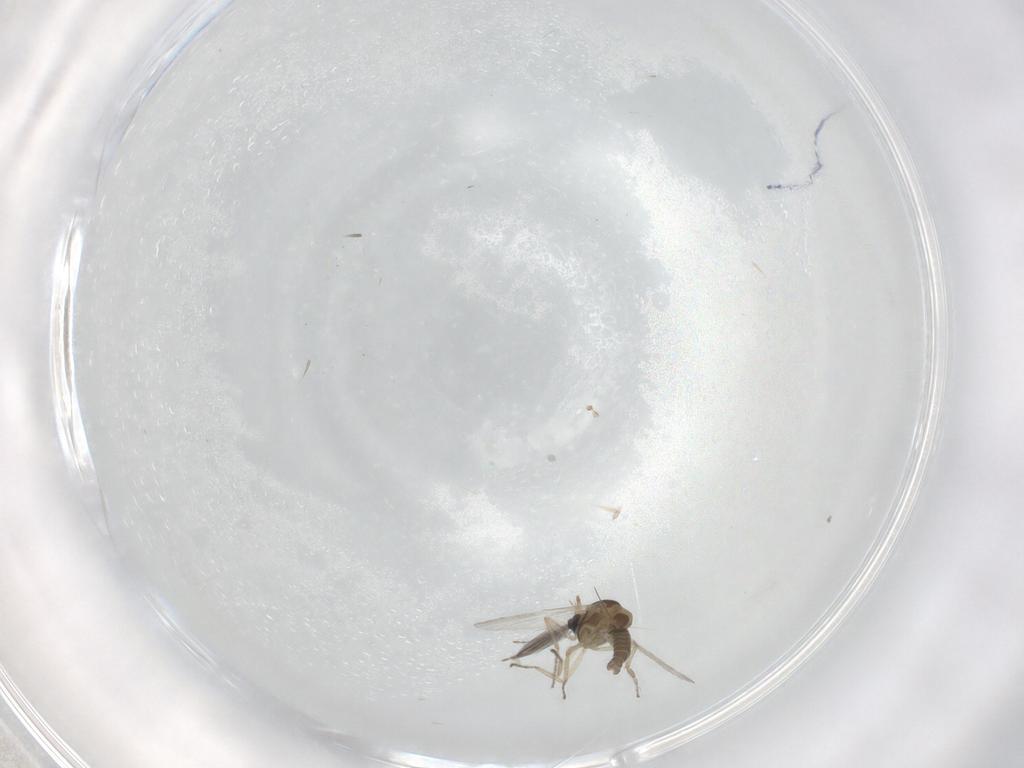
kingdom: Animalia
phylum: Arthropoda
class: Insecta
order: Diptera
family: Ceratopogonidae
